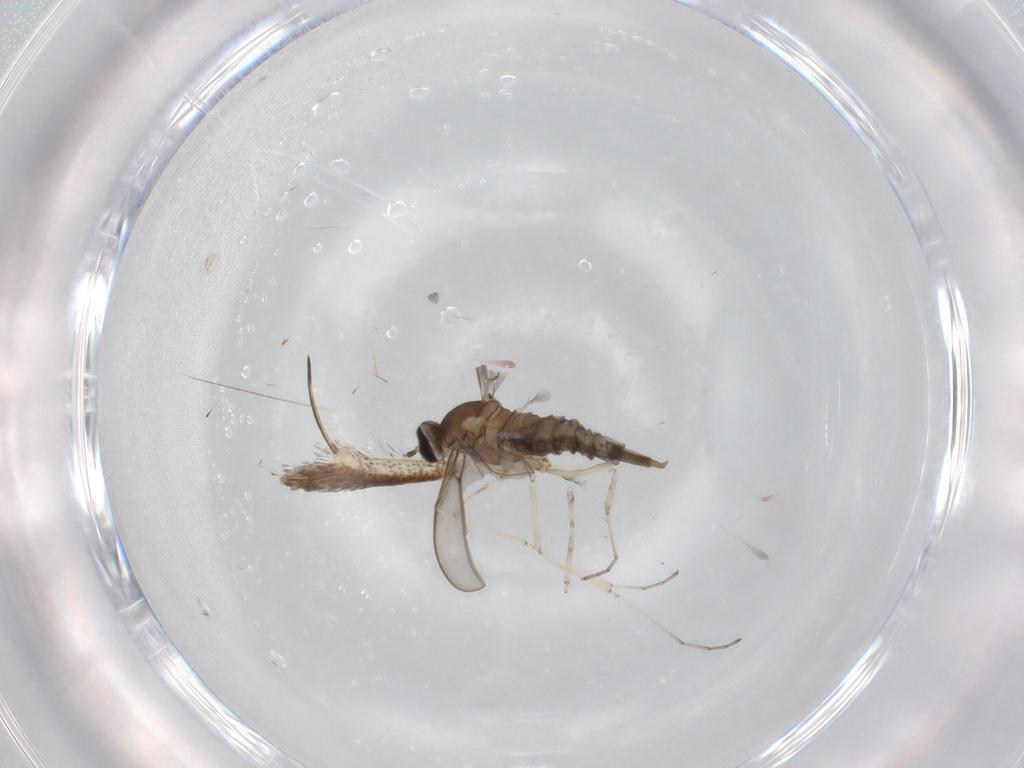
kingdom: Animalia
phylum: Arthropoda
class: Insecta
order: Diptera
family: Cecidomyiidae
